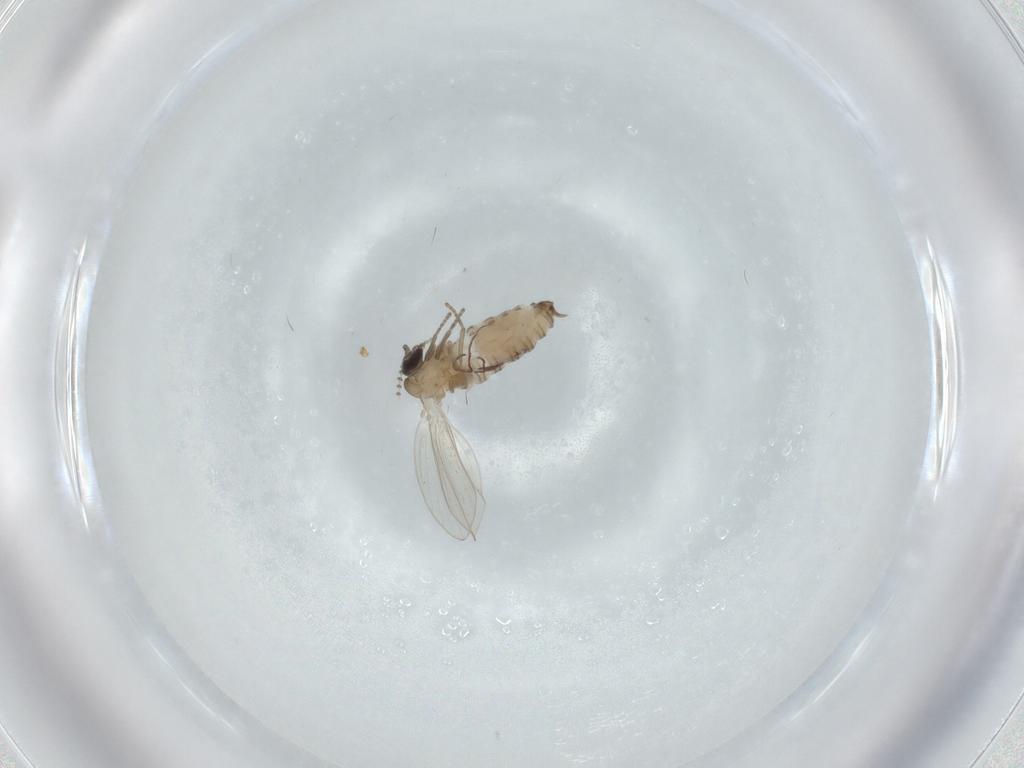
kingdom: Animalia
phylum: Arthropoda
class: Insecta
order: Diptera
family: Psychodidae
